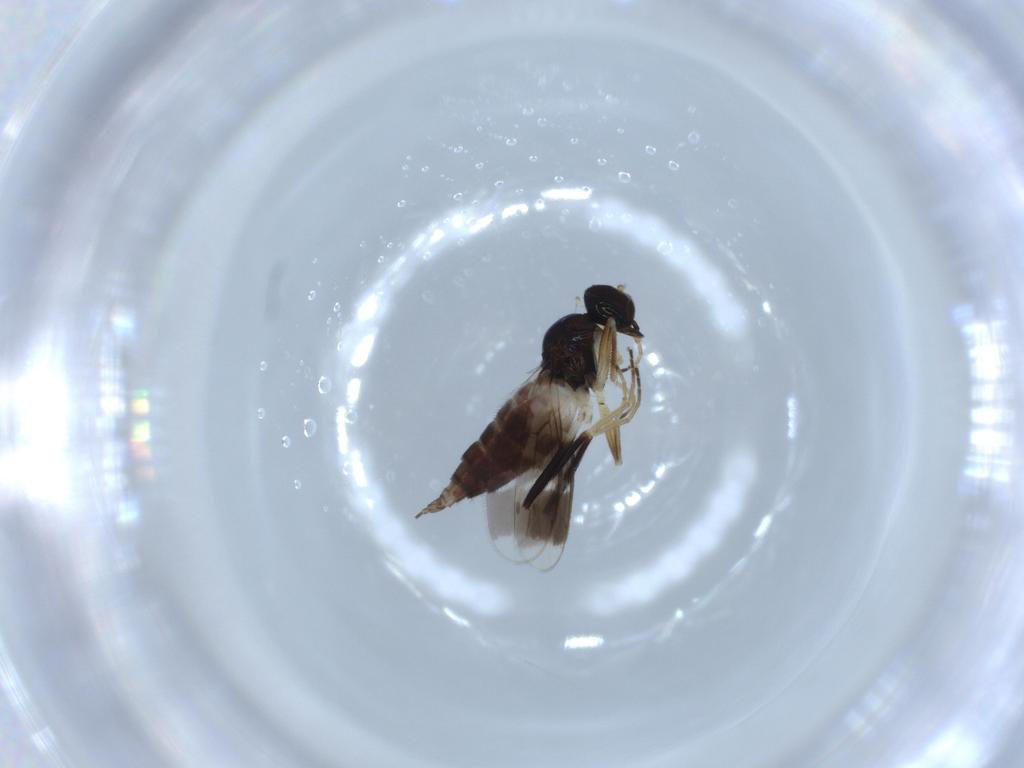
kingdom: Animalia
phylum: Arthropoda
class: Insecta
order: Diptera
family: Hybotidae
